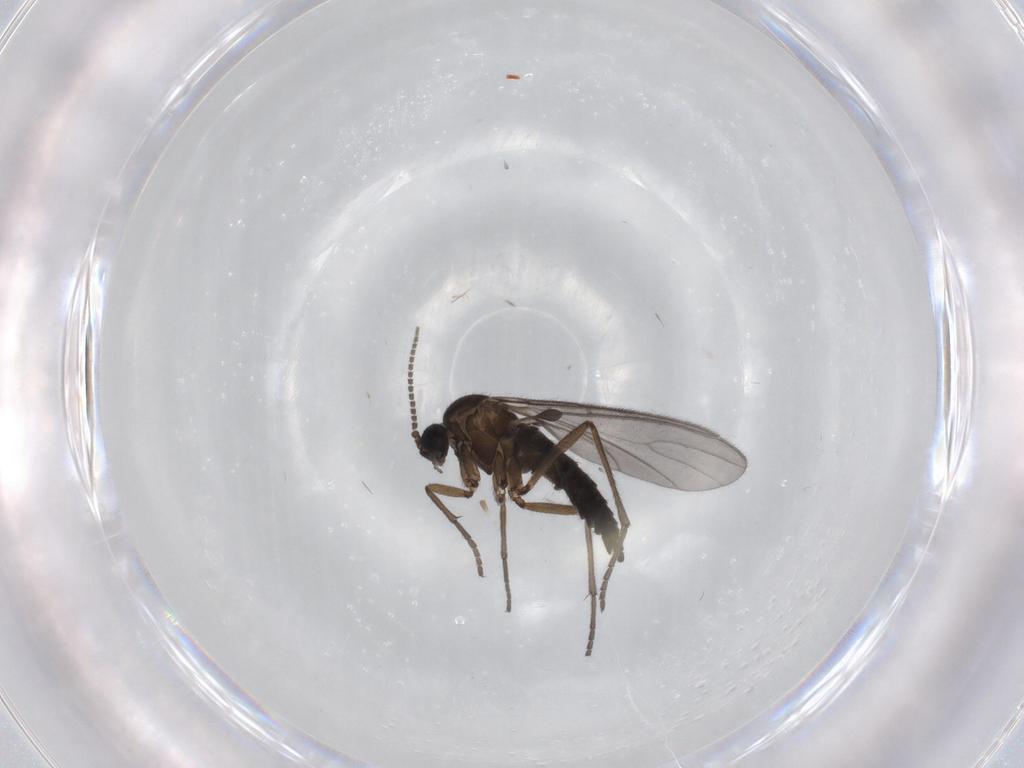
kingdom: Animalia
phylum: Arthropoda
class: Insecta
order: Diptera
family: Sciaridae
